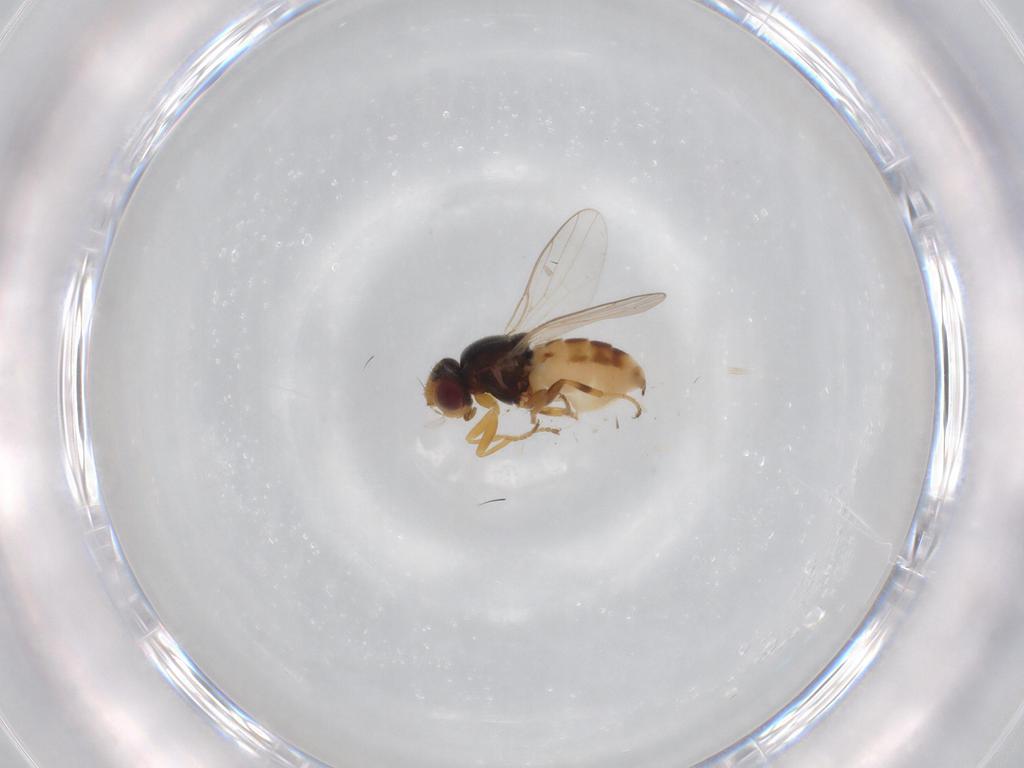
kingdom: Animalia
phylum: Arthropoda
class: Insecta
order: Diptera
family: Chloropidae
